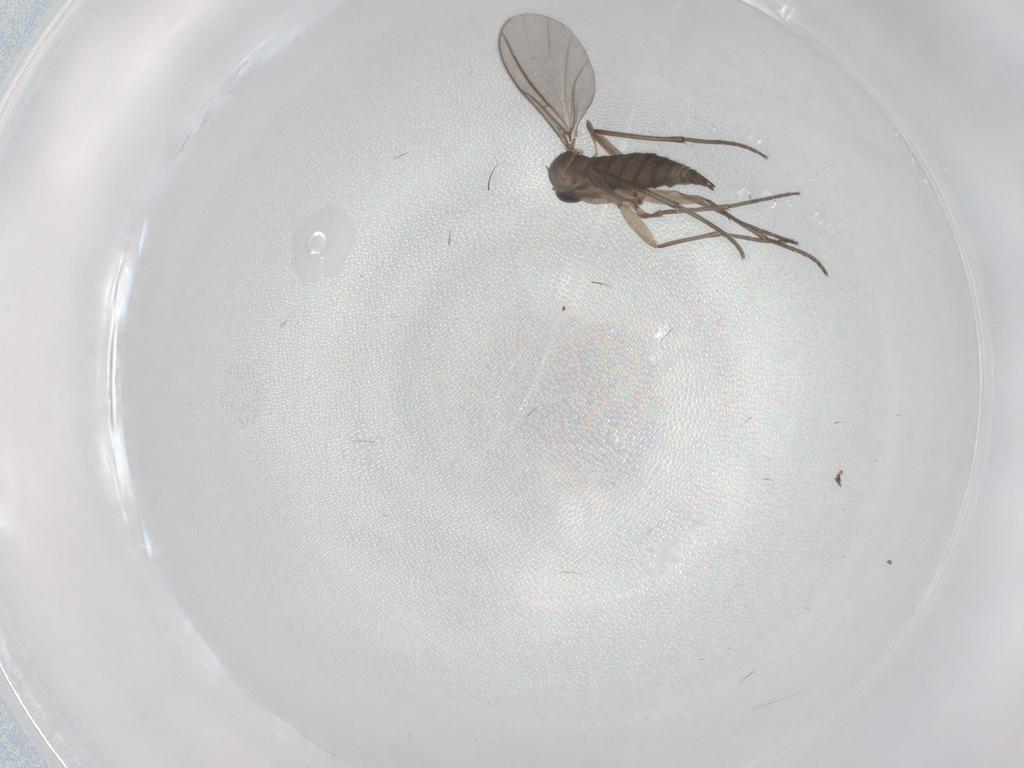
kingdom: Animalia
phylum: Arthropoda
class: Insecta
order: Diptera
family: Sciaridae
